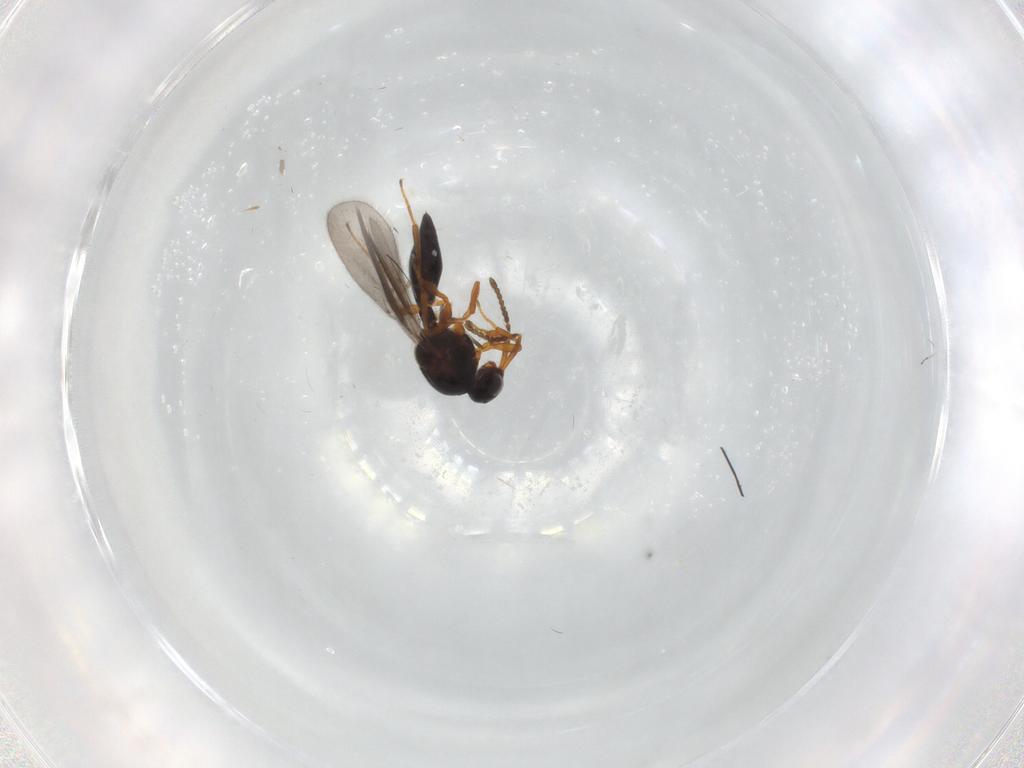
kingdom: Animalia
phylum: Arthropoda
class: Insecta
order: Hymenoptera
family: Platygastridae
